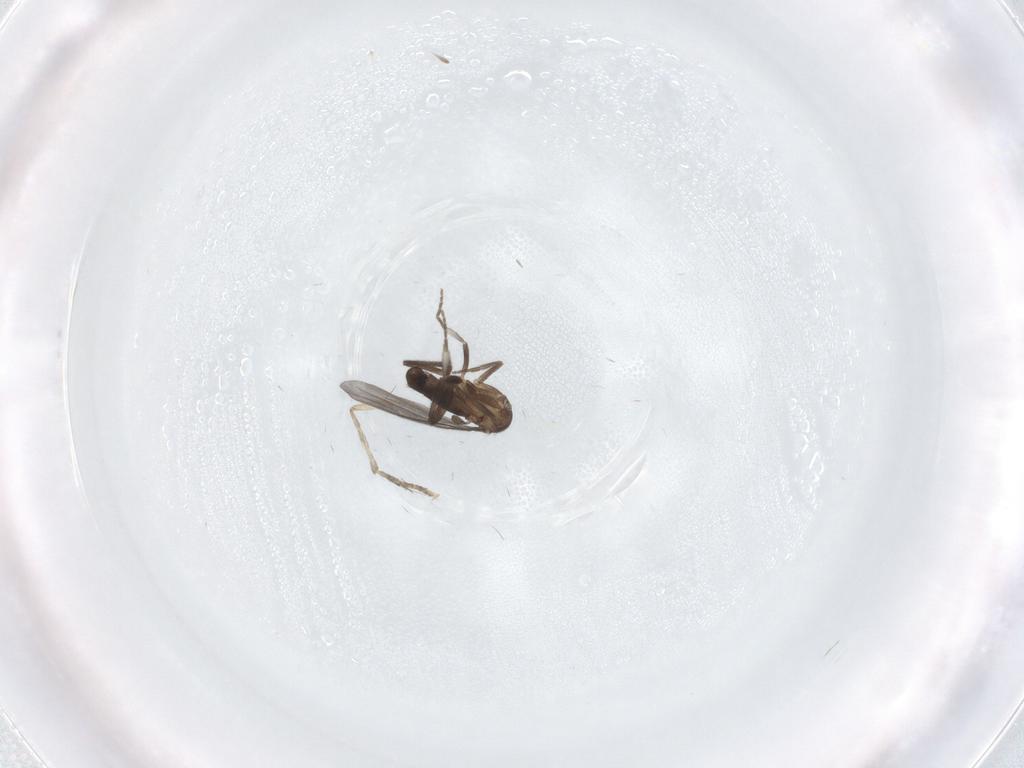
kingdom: Animalia
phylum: Arthropoda
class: Insecta
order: Diptera
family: Phoridae
